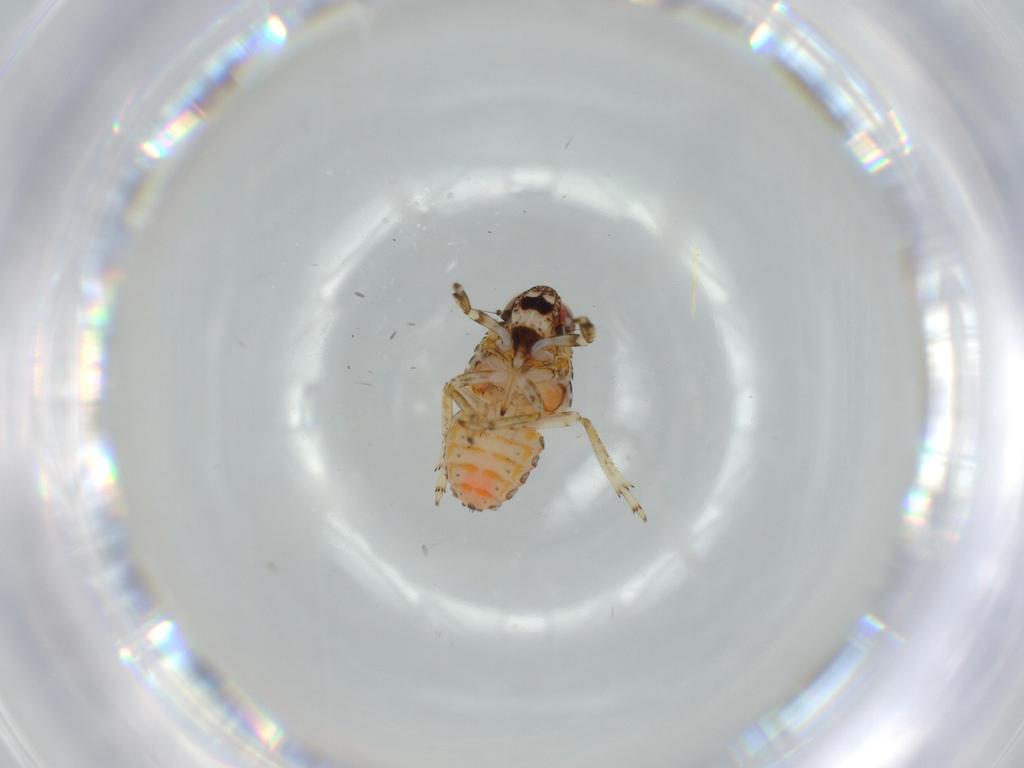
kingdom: Animalia
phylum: Arthropoda
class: Insecta
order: Hemiptera
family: Issidae
